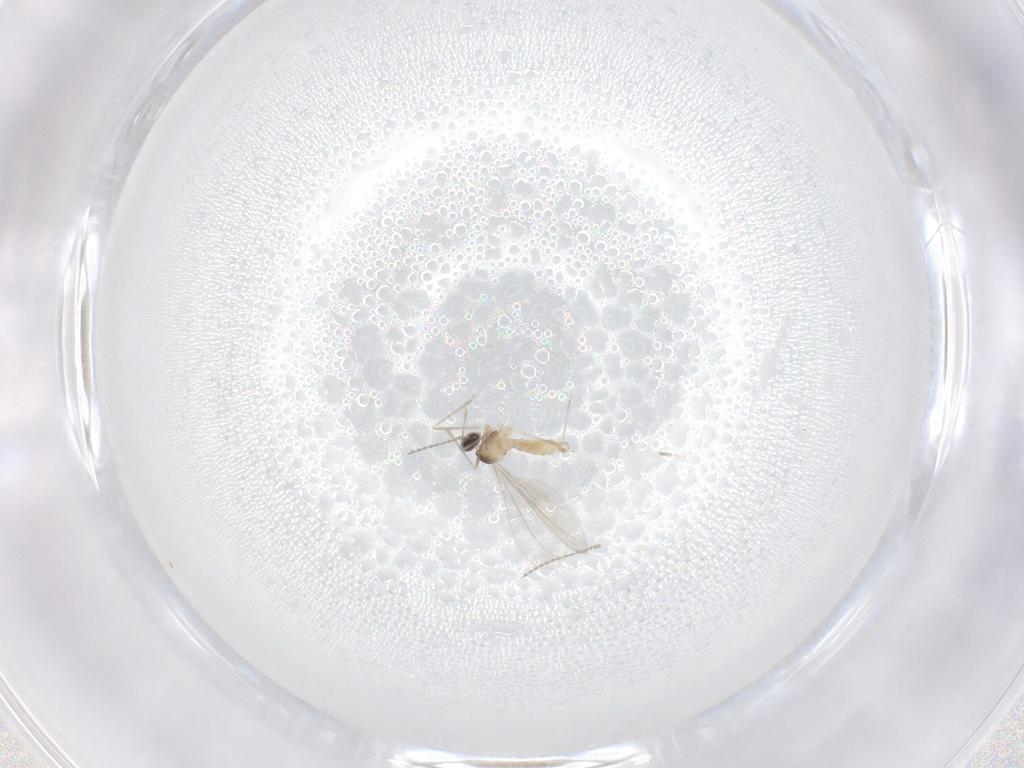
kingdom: Animalia
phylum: Arthropoda
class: Insecta
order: Diptera
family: Cecidomyiidae
